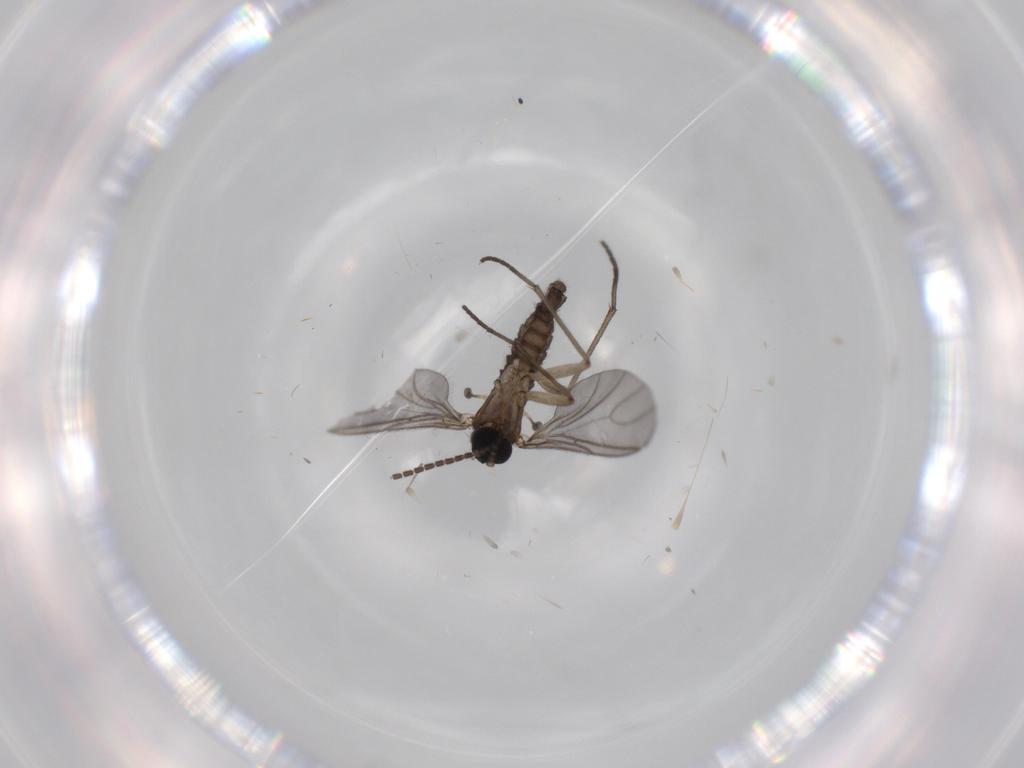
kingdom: Animalia
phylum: Arthropoda
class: Insecta
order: Diptera
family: Ceratopogonidae
